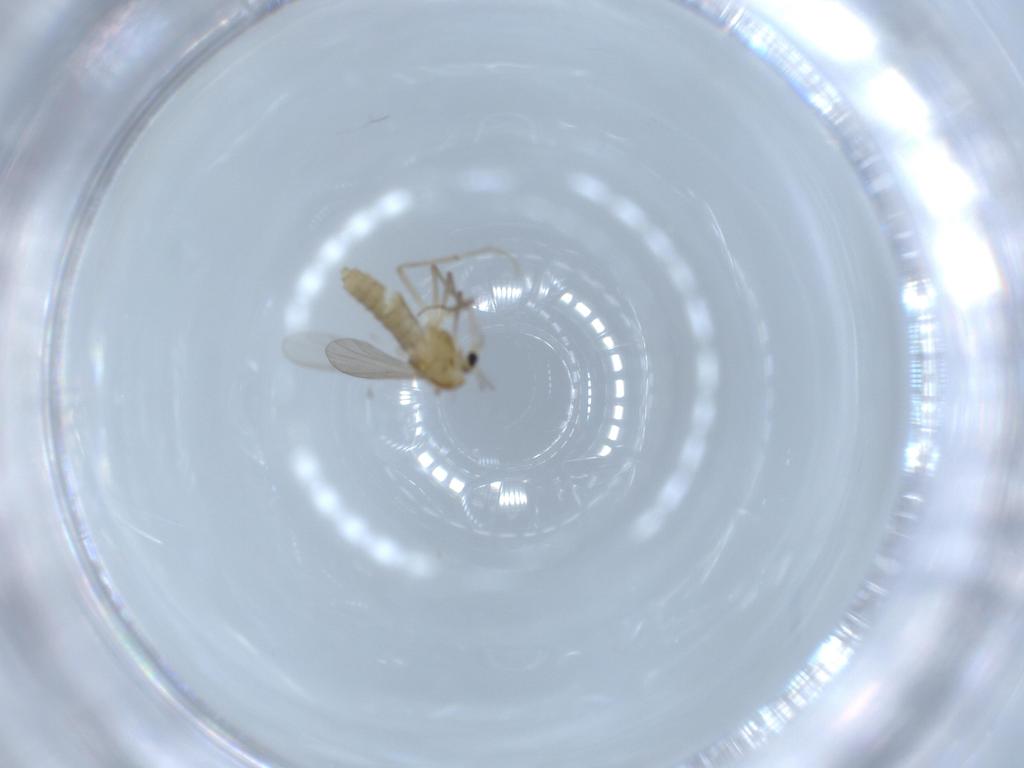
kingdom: Animalia
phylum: Arthropoda
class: Insecta
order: Diptera
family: Chironomidae
